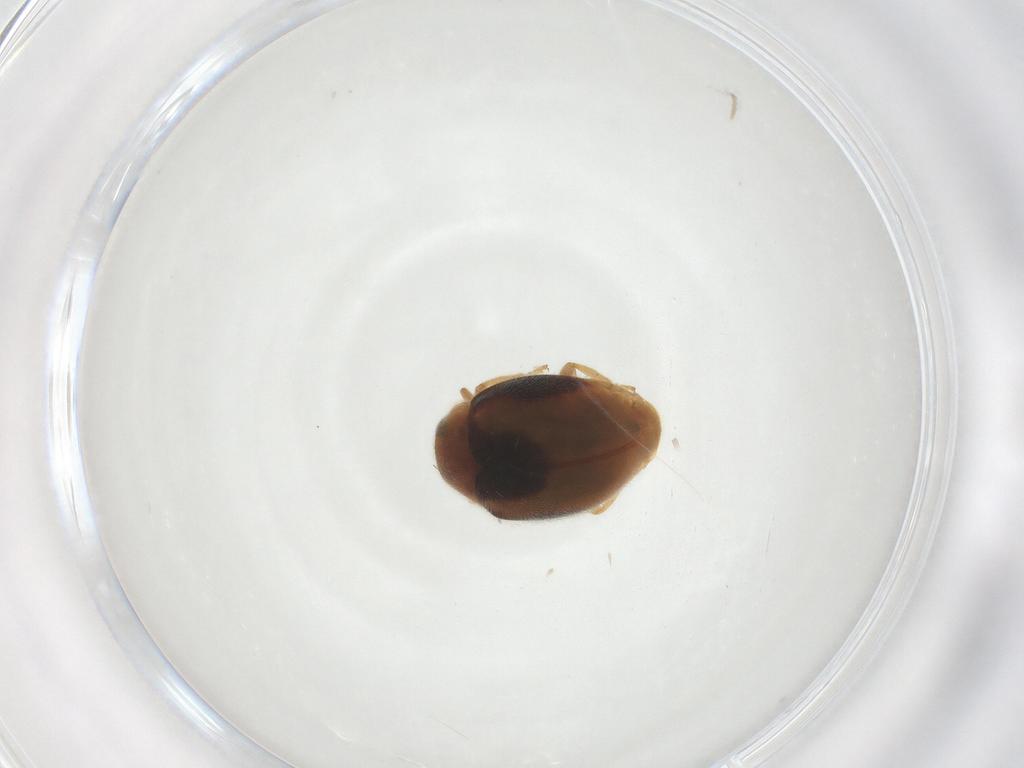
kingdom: Animalia
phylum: Arthropoda
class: Insecta
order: Coleoptera
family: Coccinellidae
